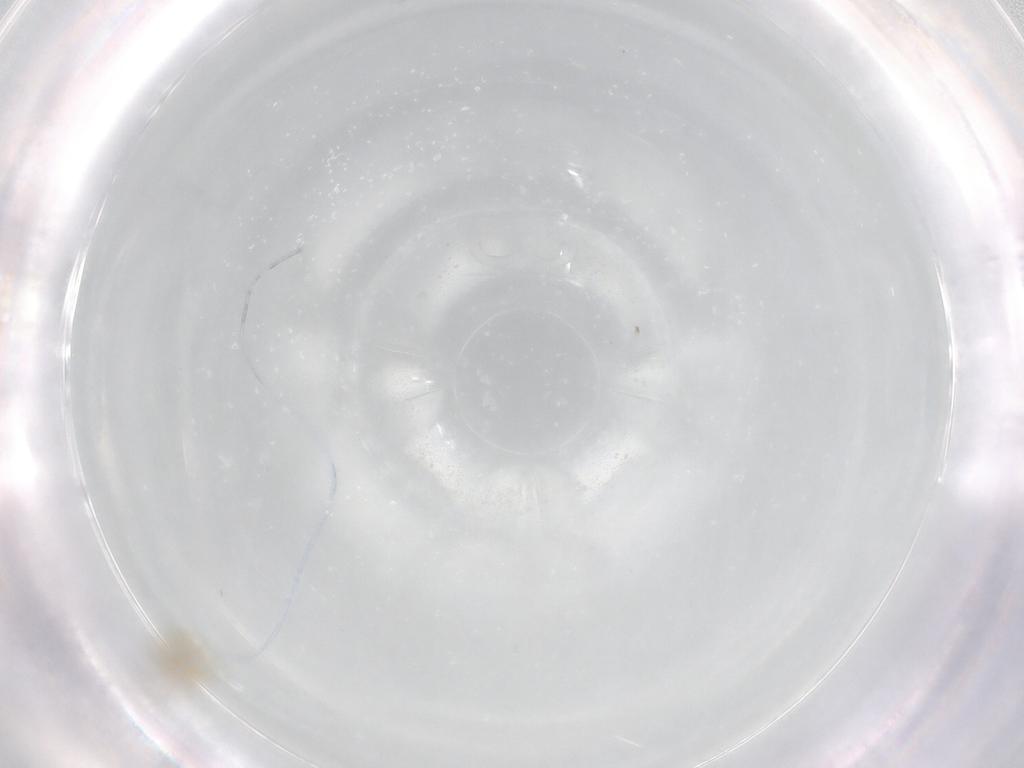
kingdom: Animalia
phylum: Arthropoda
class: Insecta
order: Hymenoptera
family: Trichogrammatidae
